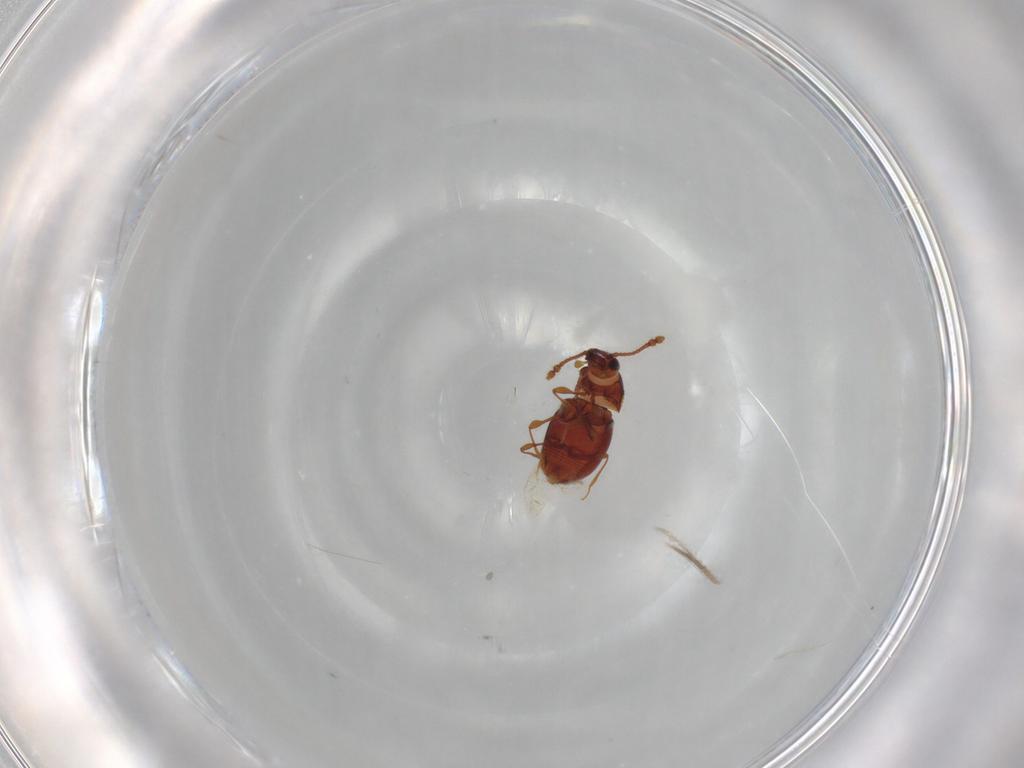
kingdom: Animalia
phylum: Arthropoda
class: Insecta
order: Coleoptera
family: Staphylinidae
